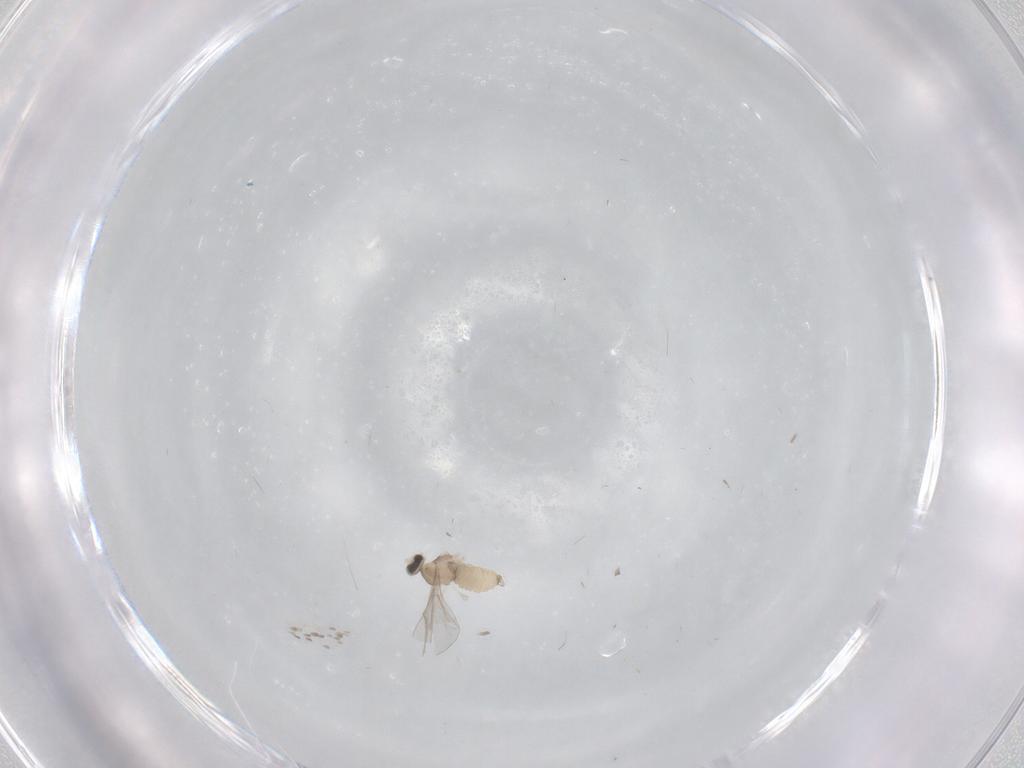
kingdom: Animalia
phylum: Arthropoda
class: Insecta
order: Diptera
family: Cecidomyiidae
